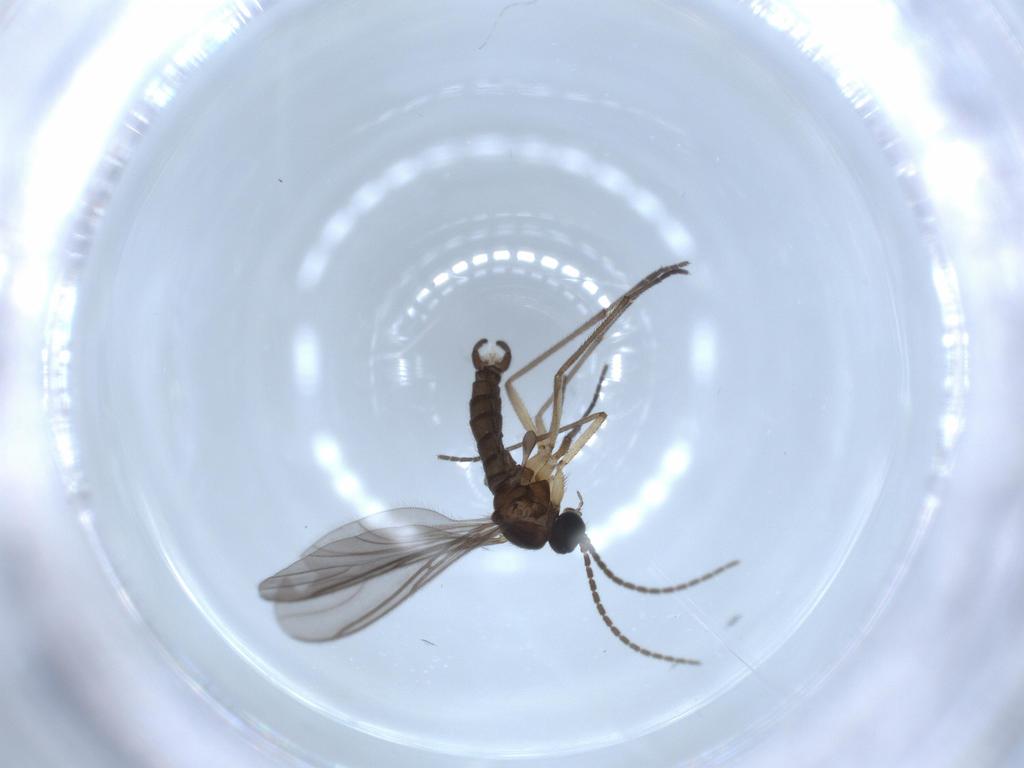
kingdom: Animalia
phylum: Arthropoda
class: Insecta
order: Diptera
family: Sciaridae
